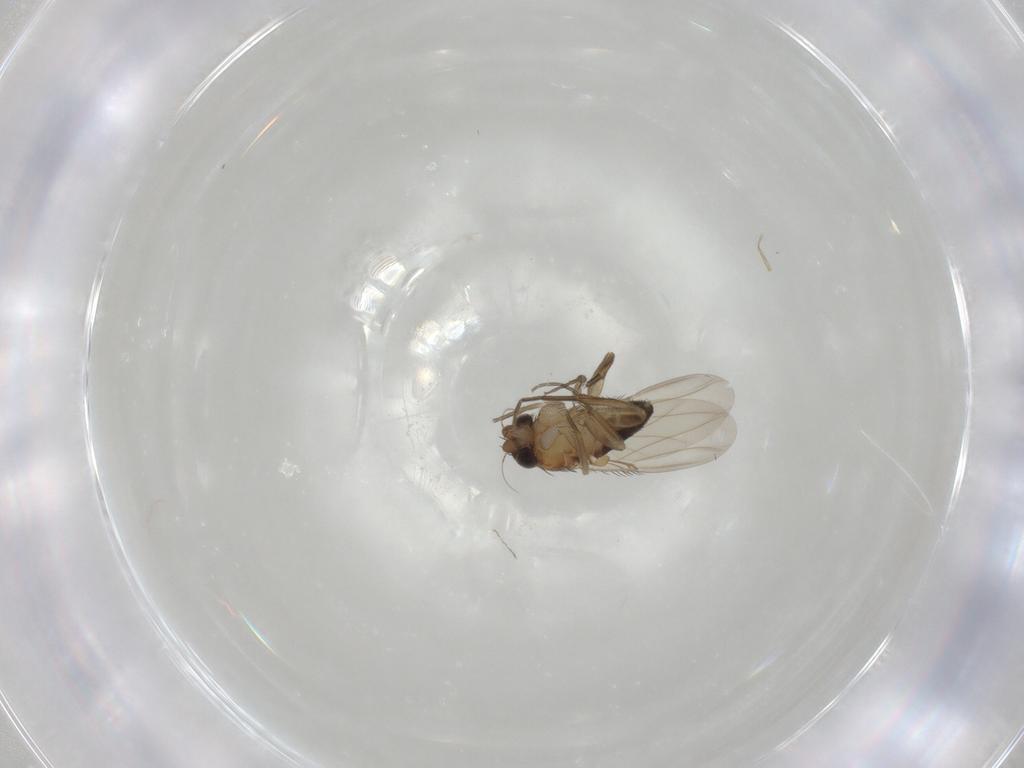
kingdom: Animalia
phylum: Arthropoda
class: Insecta
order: Diptera
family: Phoridae
